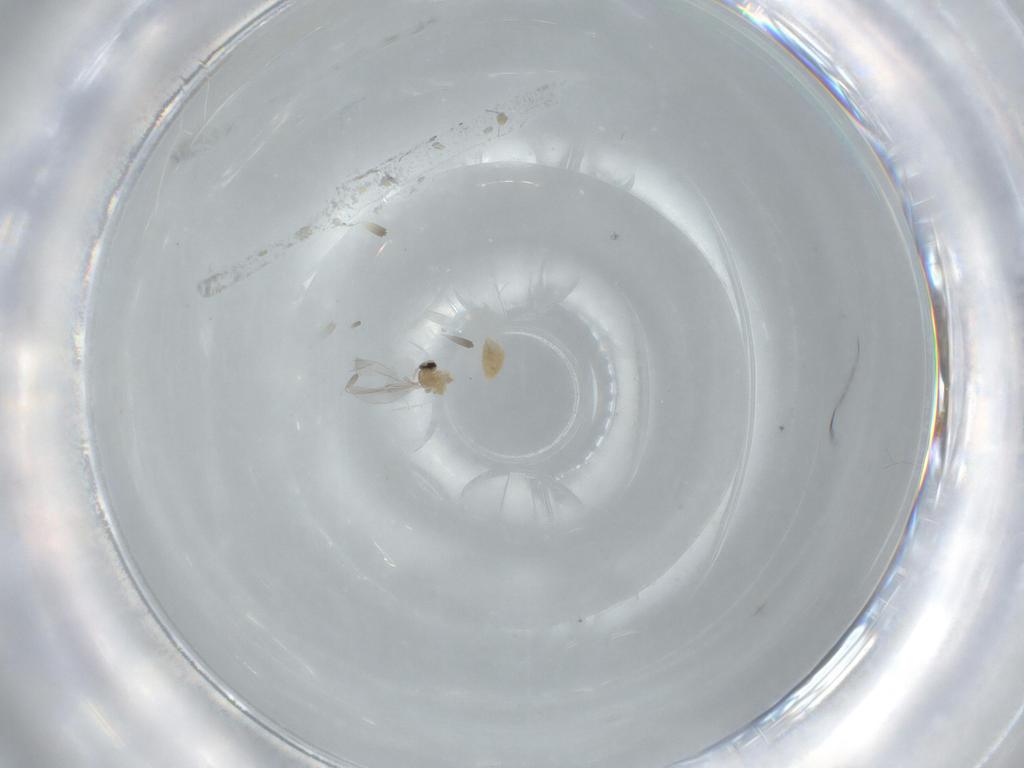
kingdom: Animalia
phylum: Arthropoda
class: Insecta
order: Diptera
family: Cecidomyiidae
